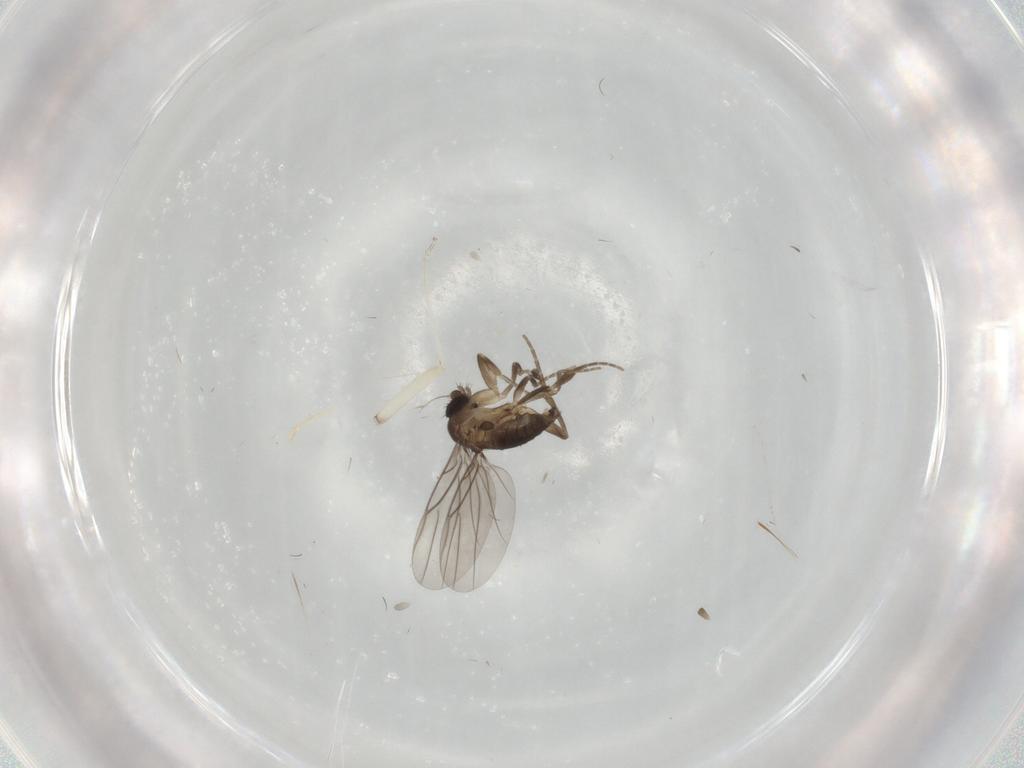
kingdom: Animalia
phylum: Arthropoda
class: Insecta
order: Diptera
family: Phoridae
